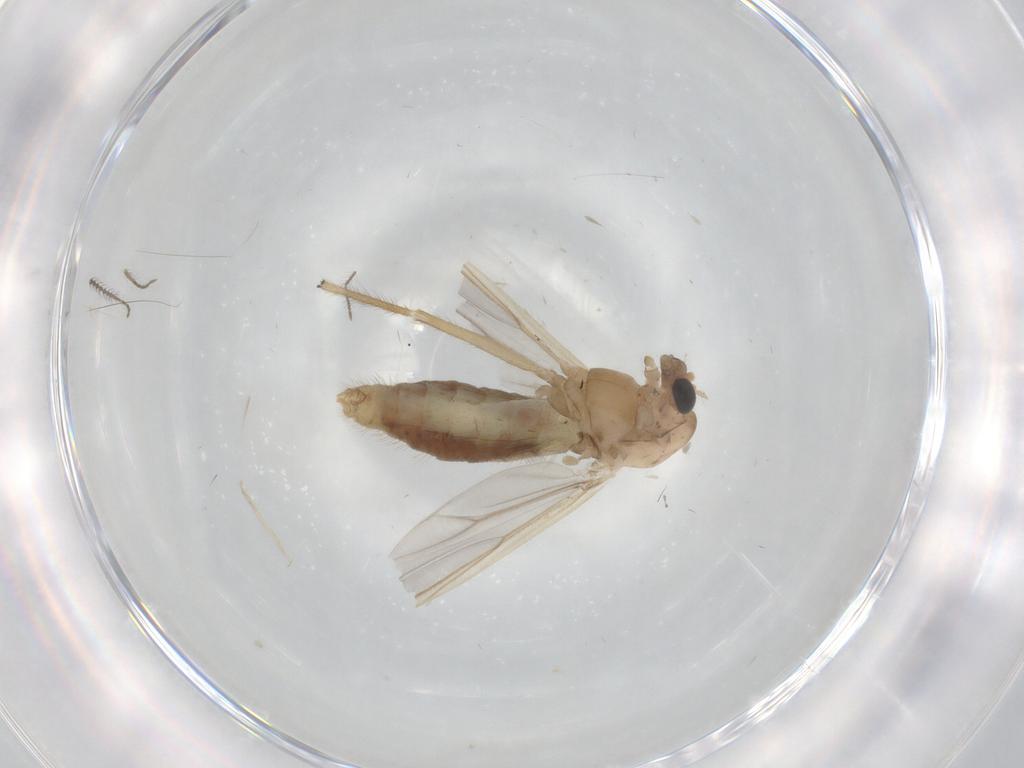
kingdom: Animalia
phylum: Arthropoda
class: Insecta
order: Diptera
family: Chironomidae
